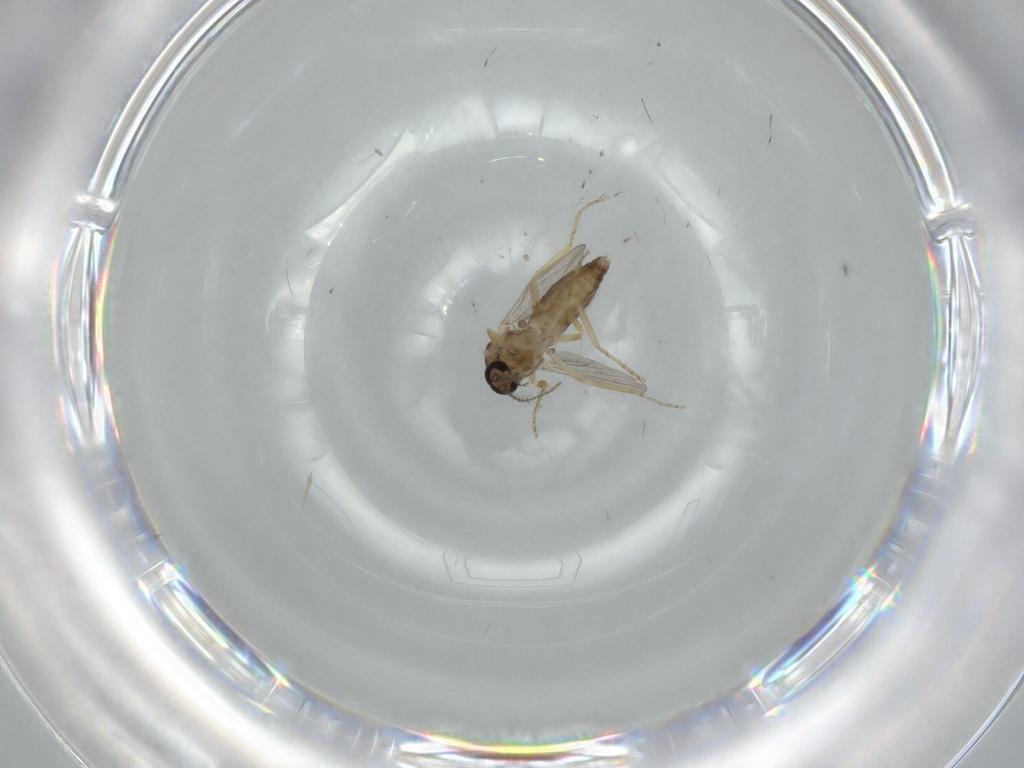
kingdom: Animalia
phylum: Arthropoda
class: Insecta
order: Diptera
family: Ceratopogonidae
